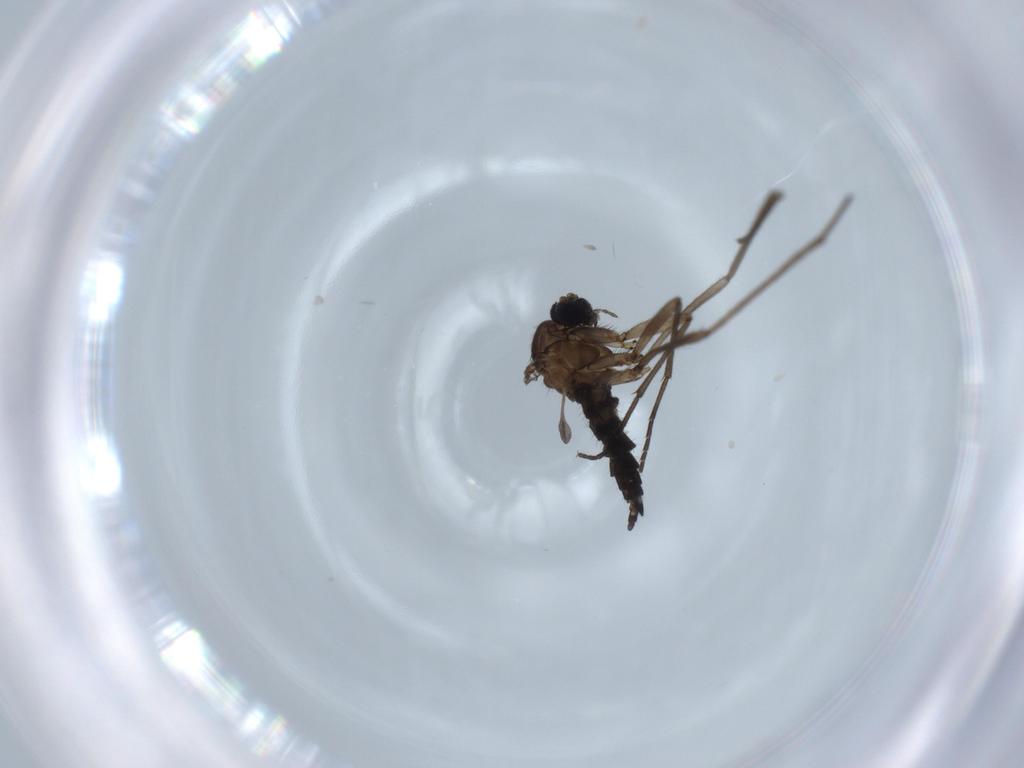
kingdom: Animalia
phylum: Arthropoda
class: Insecta
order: Diptera
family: Sciaridae
